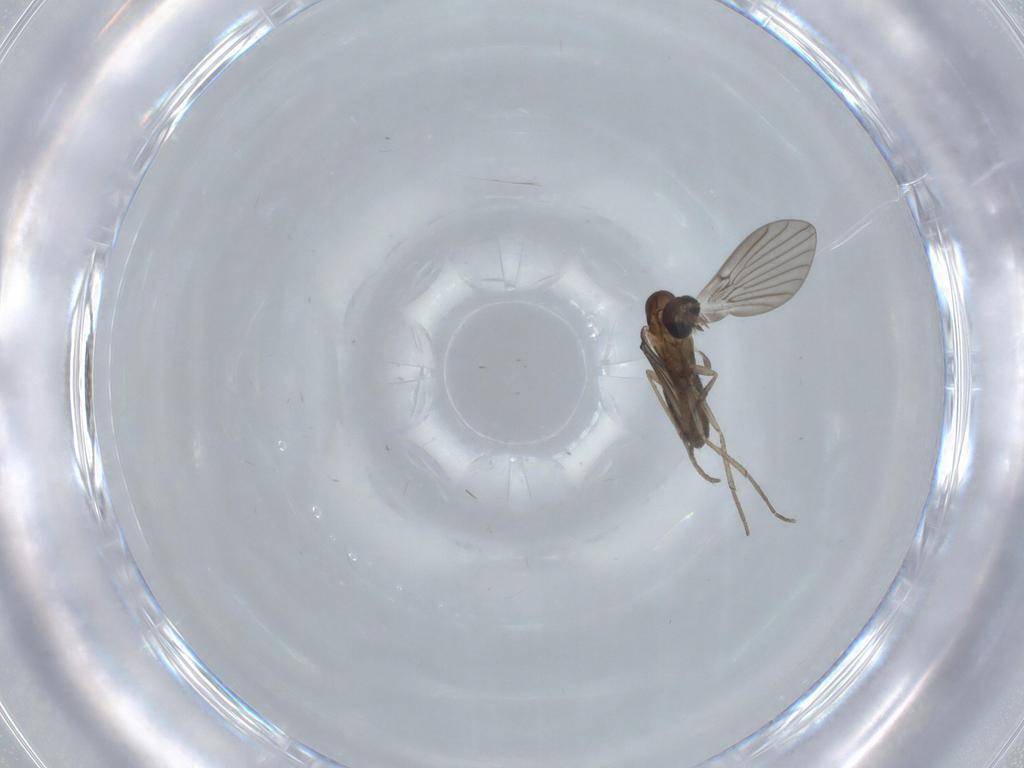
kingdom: Animalia
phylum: Arthropoda
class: Insecta
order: Diptera
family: Psychodidae
